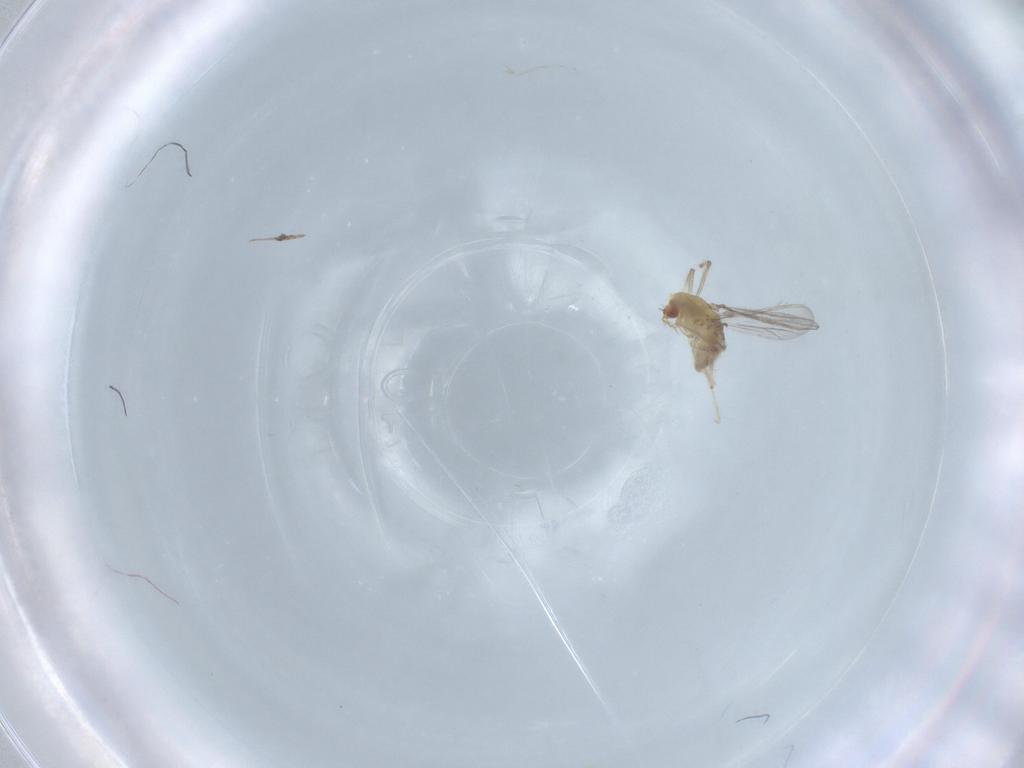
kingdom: Animalia
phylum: Arthropoda
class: Insecta
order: Diptera
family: Chironomidae
